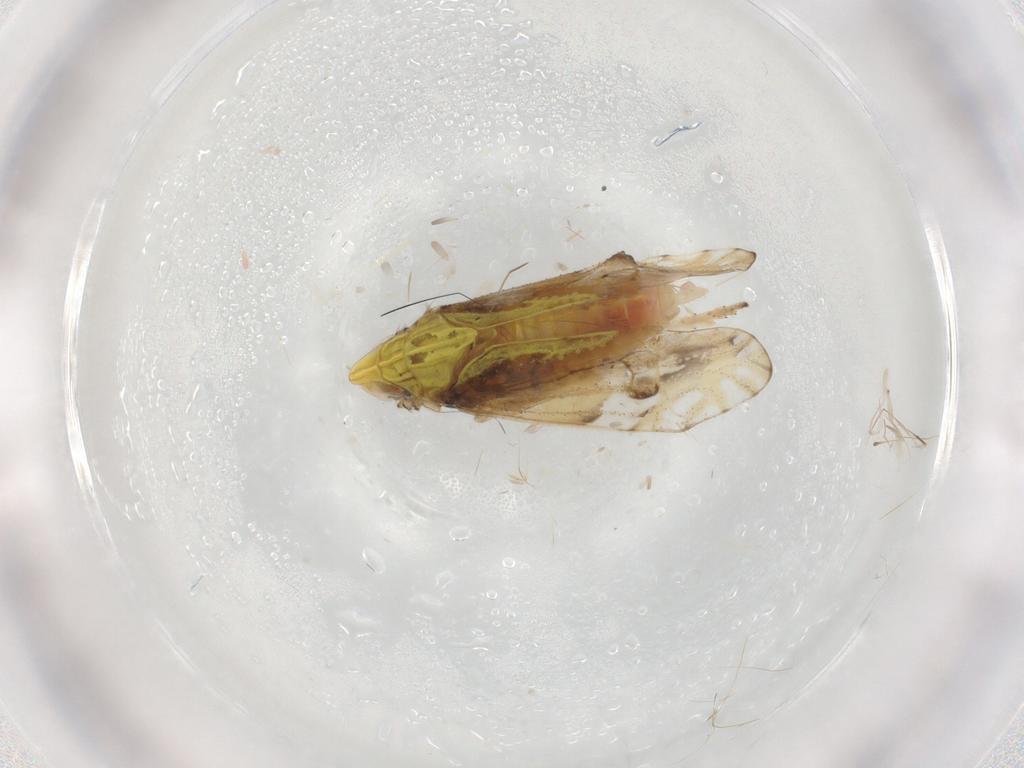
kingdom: Animalia
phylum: Arthropoda
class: Insecta
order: Hemiptera
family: Delphacidae
